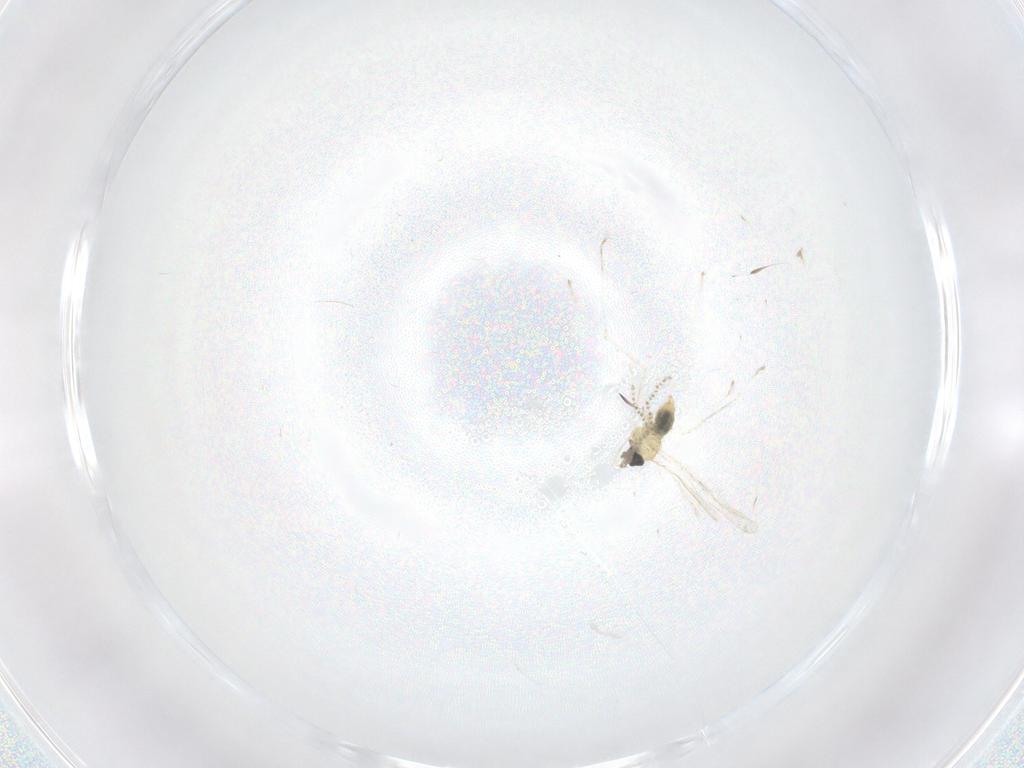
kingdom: Animalia
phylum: Arthropoda
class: Insecta
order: Diptera
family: Cecidomyiidae
